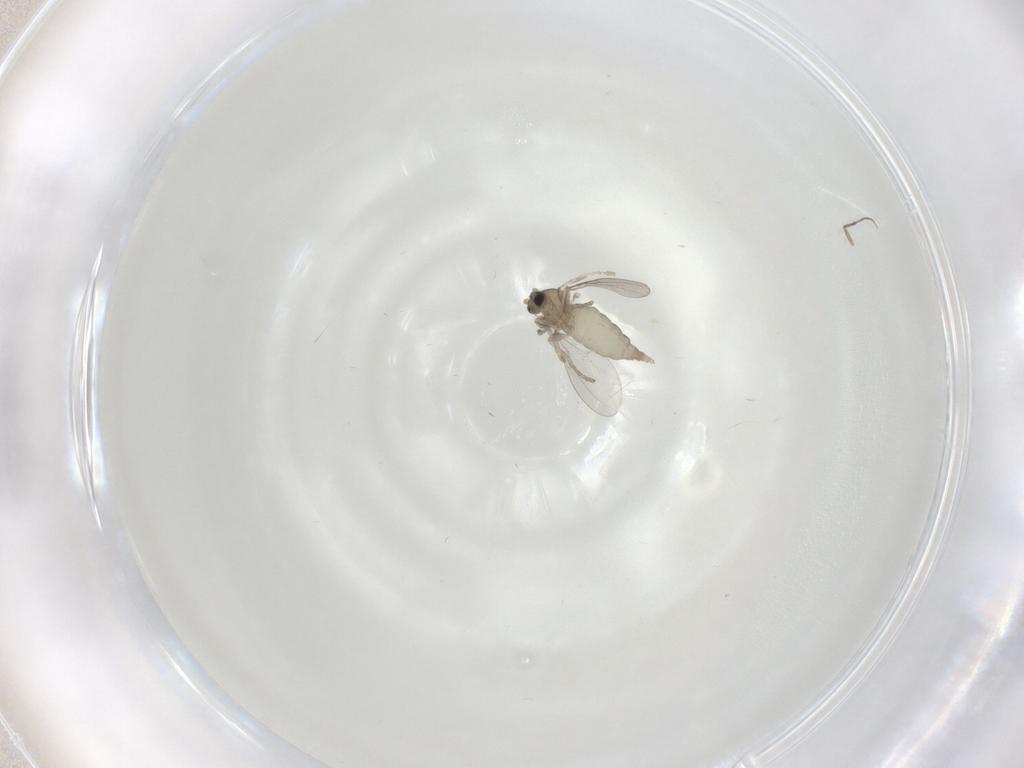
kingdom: Animalia
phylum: Arthropoda
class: Insecta
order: Diptera
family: Chironomidae
